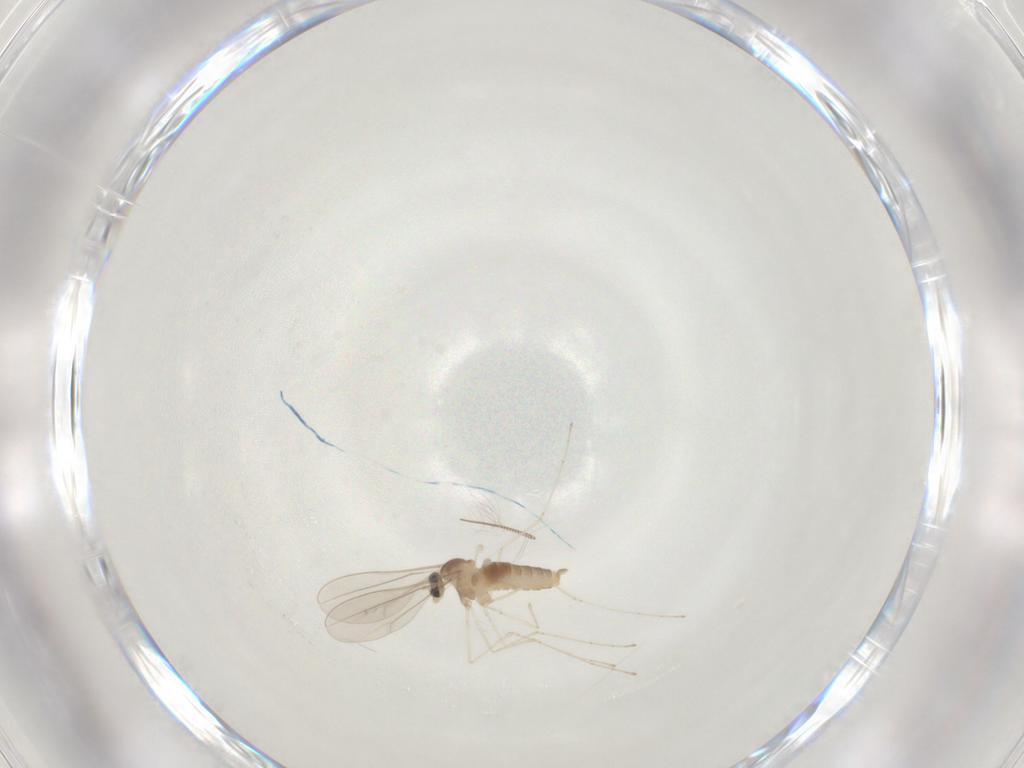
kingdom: Animalia
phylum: Arthropoda
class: Insecta
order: Diptera
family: Cecidomyiidae
